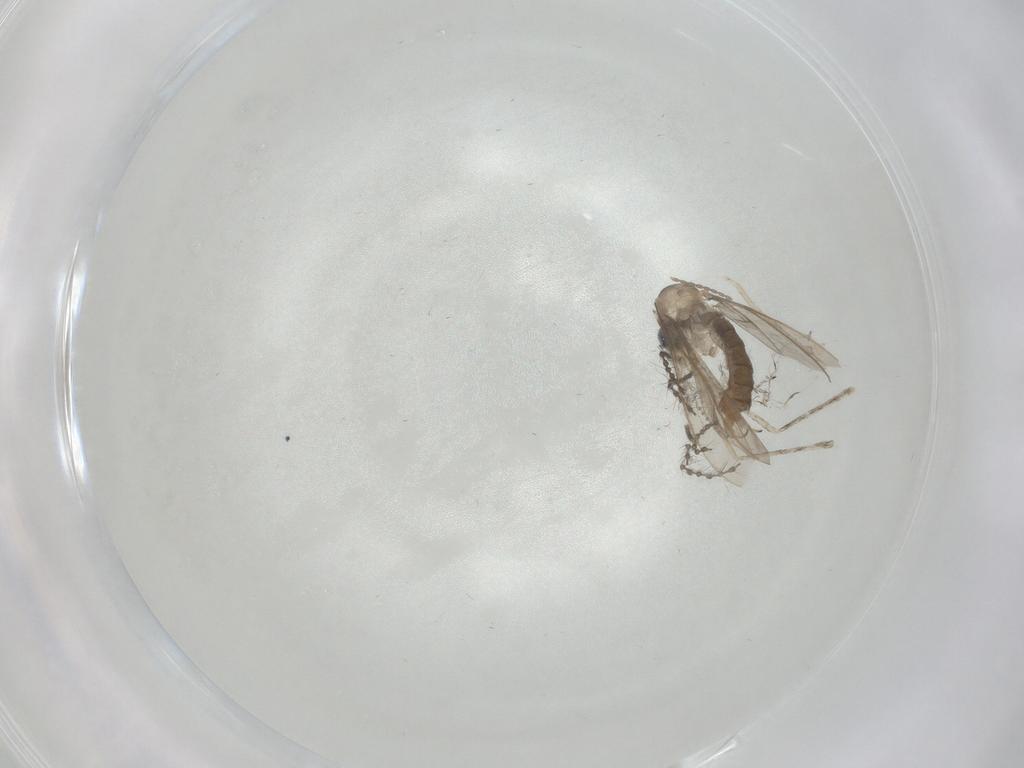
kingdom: Animalia
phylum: Arthropoda
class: Insecta
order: Diptera
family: Cecidomyiidae
